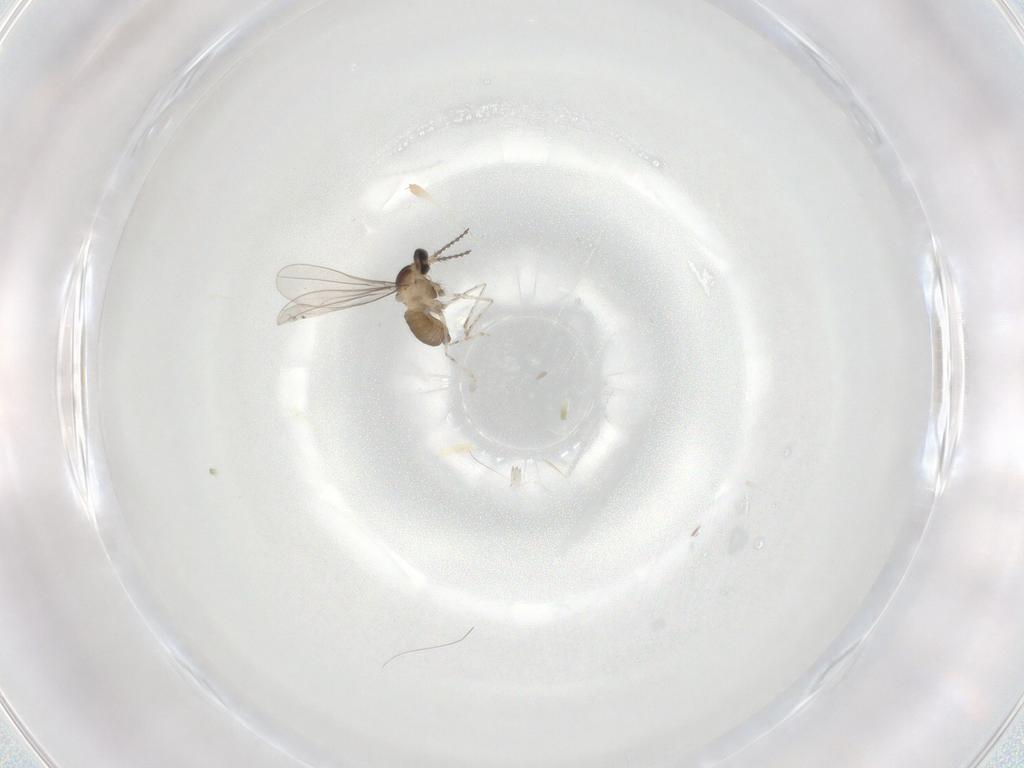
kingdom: Animalia
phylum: Arthropoda
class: Insecta
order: Diptera
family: Cecidomyiidae
